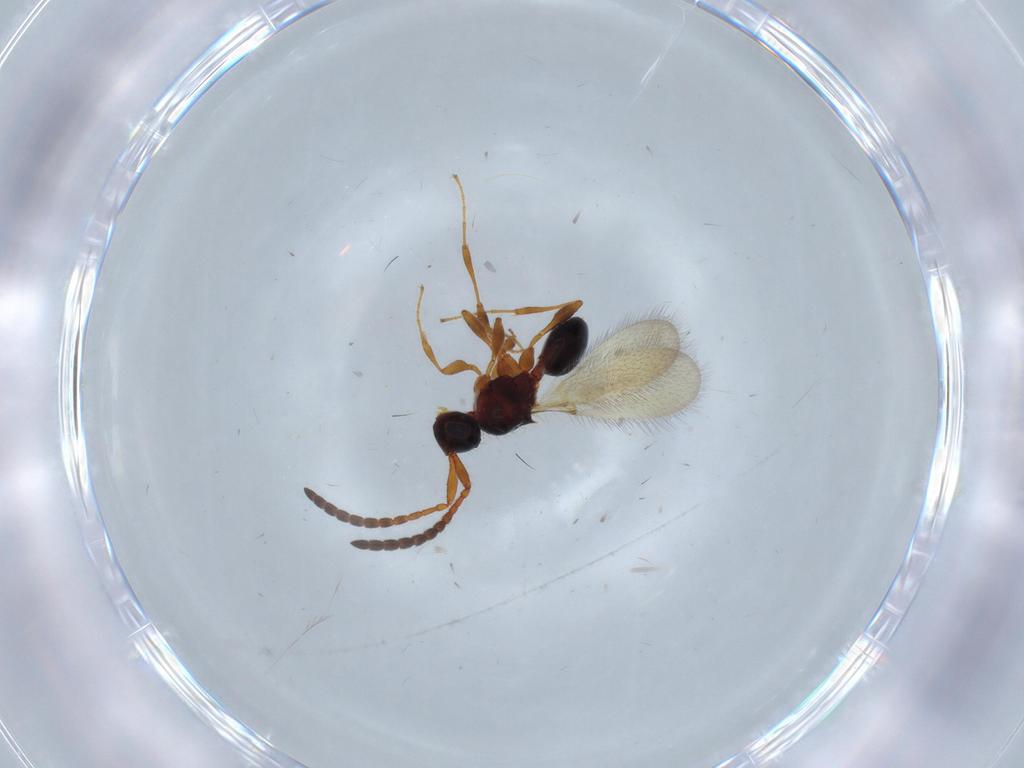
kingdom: Animalia
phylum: Arthropoda
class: Insecta
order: Hymenoptera
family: Diapriidae
